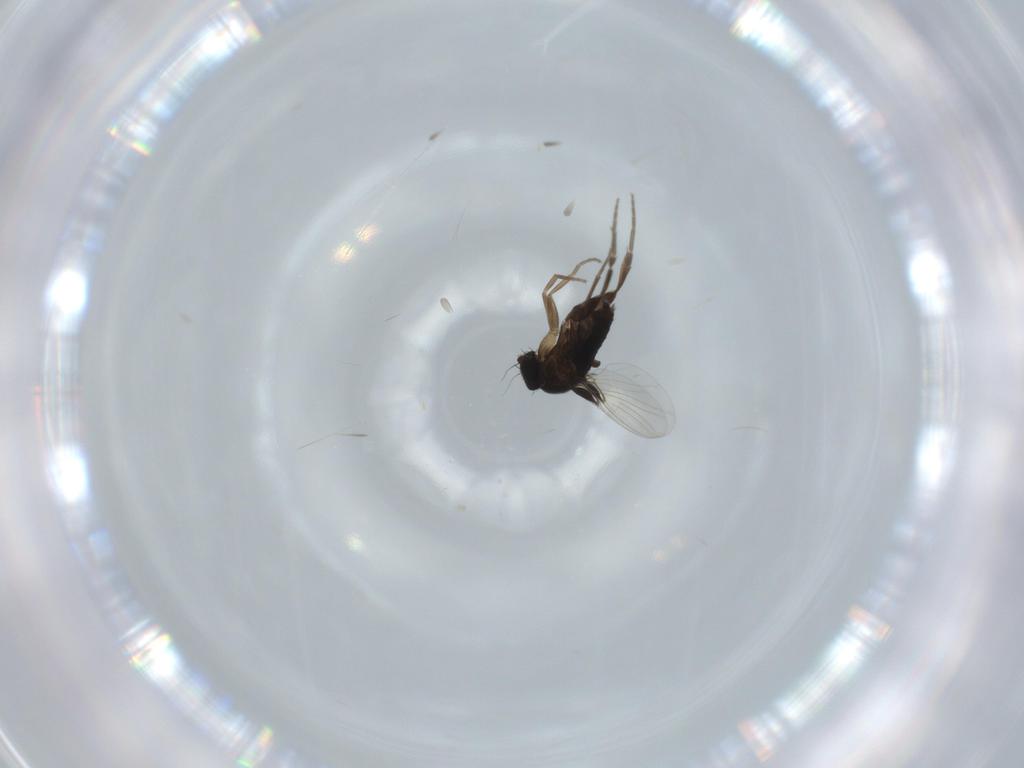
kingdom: Animalia
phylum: Arthropoda
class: Insecta
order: Diptera
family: Phoridae
